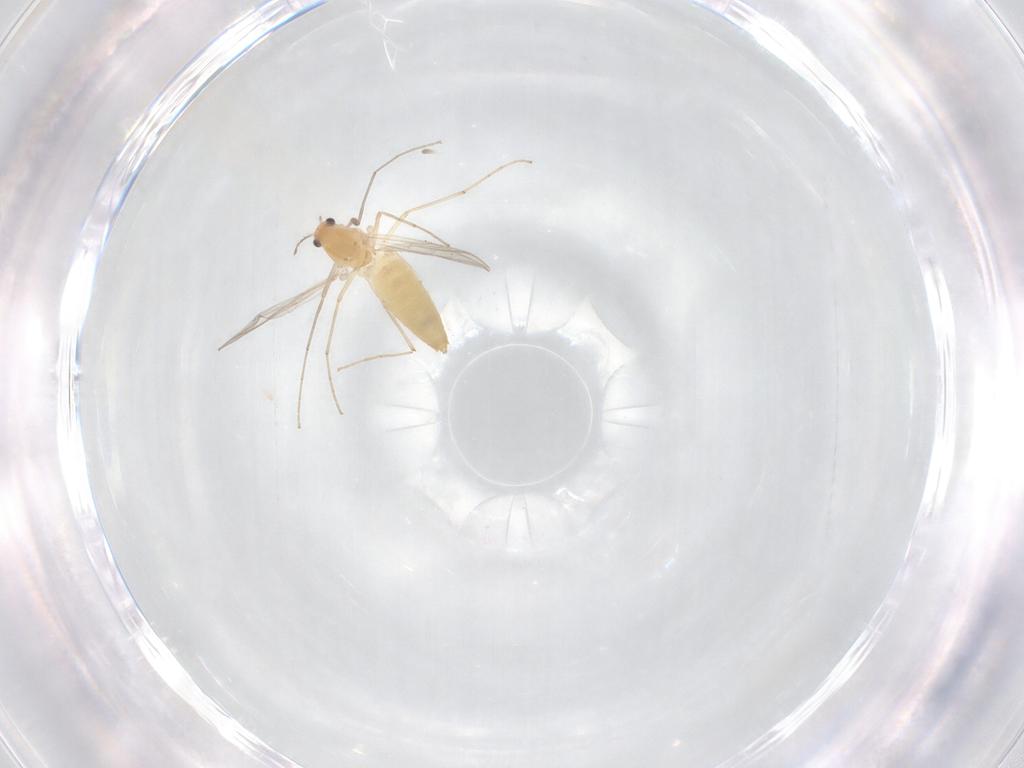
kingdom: Animalia
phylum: Arthropoda
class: Insecta
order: Diptera
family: Chironomidae
